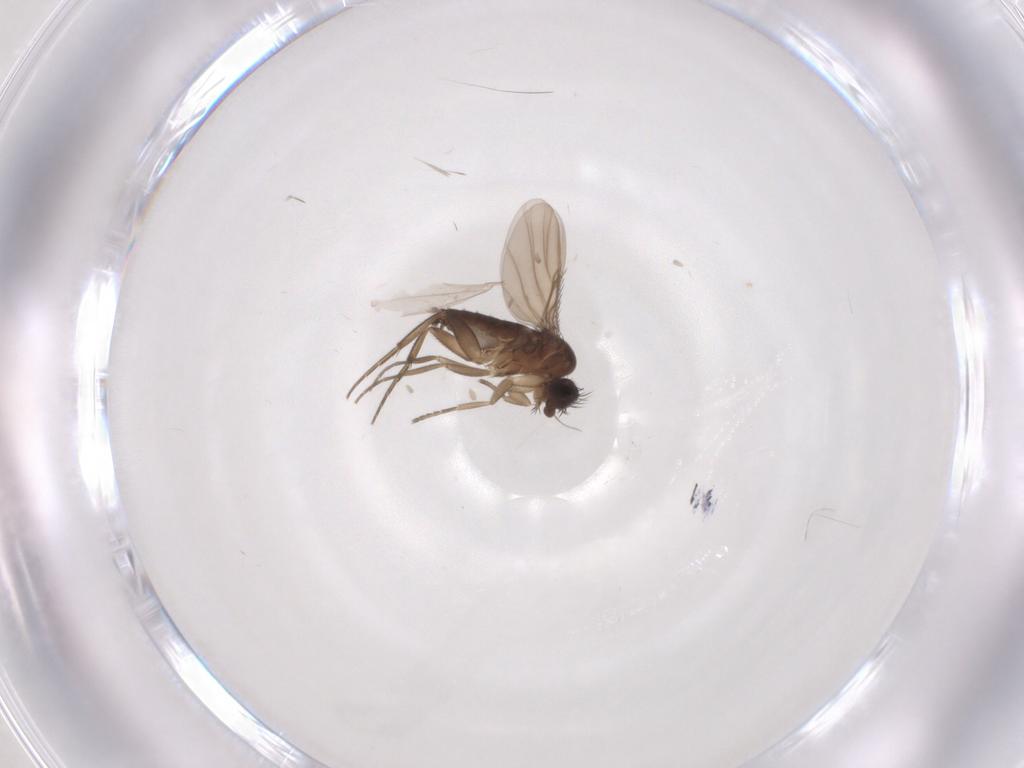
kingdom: Animalia
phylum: Arthropoda
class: Insecta
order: Diptera
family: Phoridae
